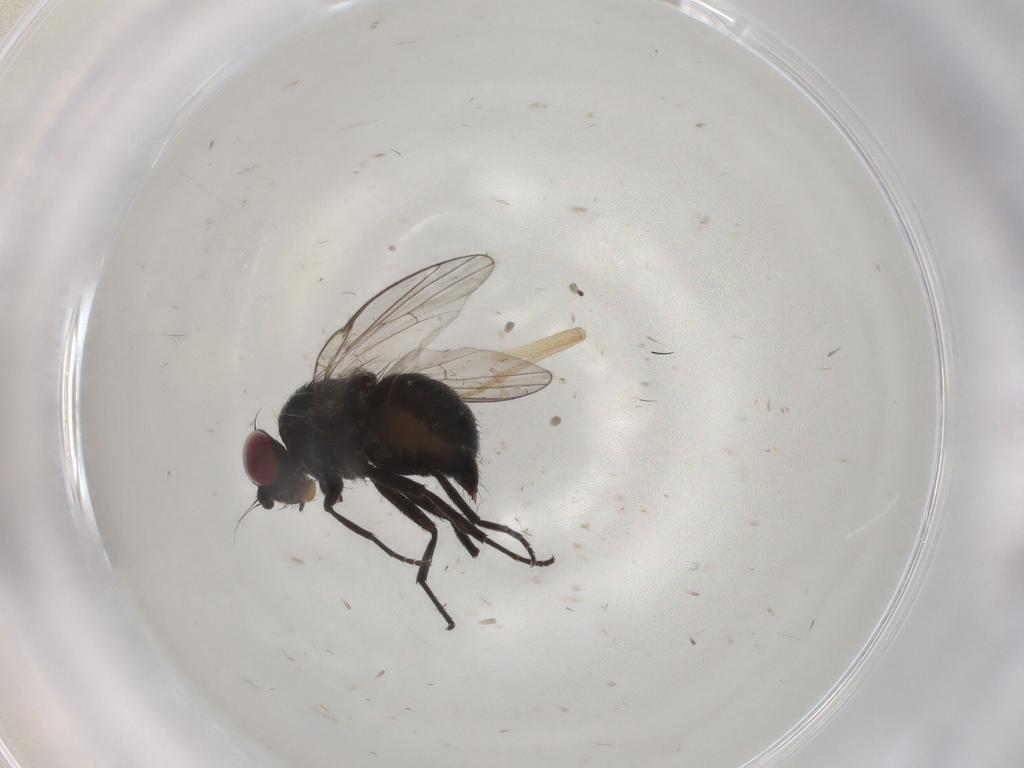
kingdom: Animalia
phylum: Arthropoda
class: Insecta
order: Diptera
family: Agromyzidae
